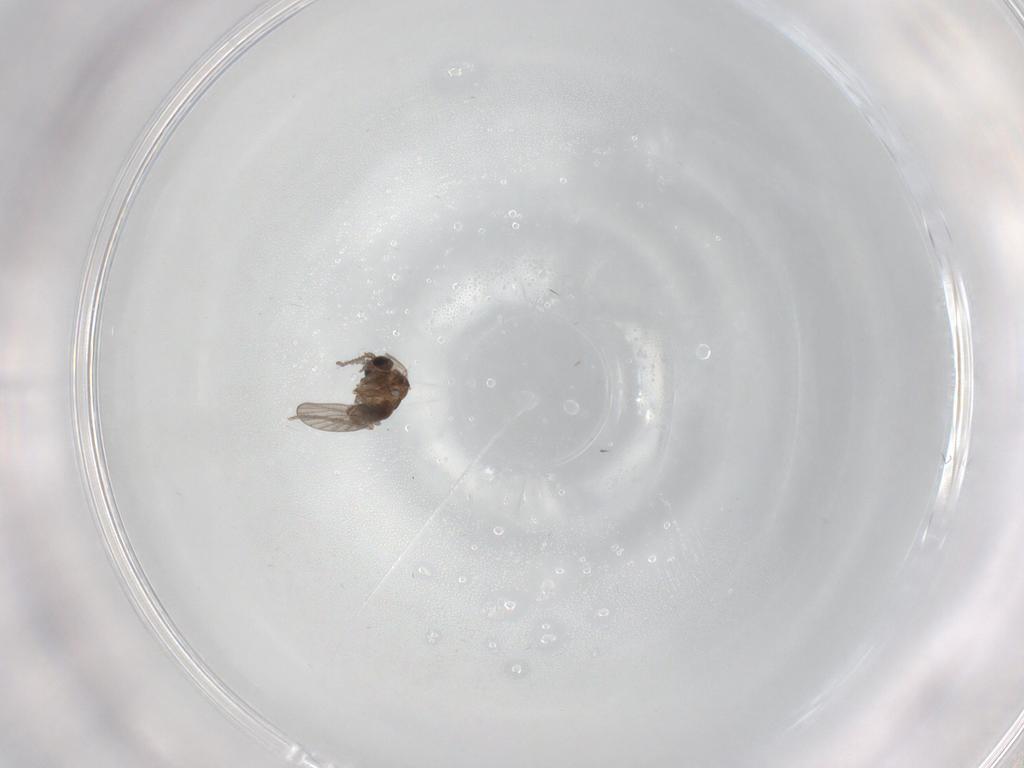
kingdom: Animalia
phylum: Arthropoda
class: Insecta
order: Diptera
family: Chironomidae
